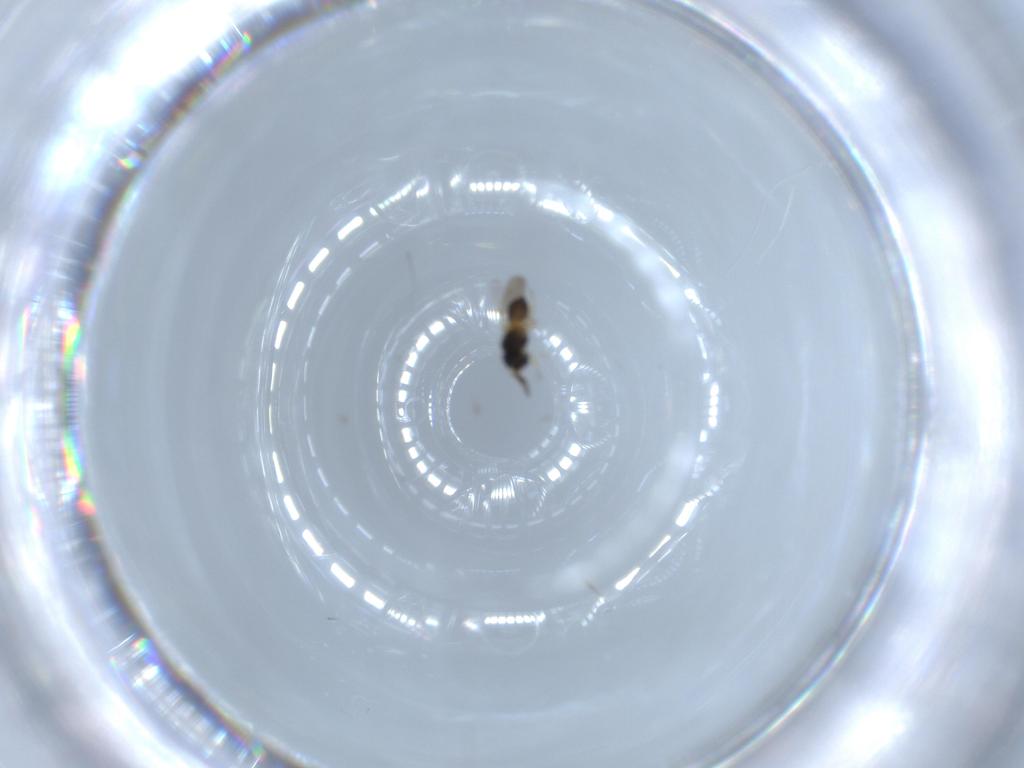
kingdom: Animalia
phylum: Arthropoda
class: Insecta
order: Hymenoptera
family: Scelionidae
